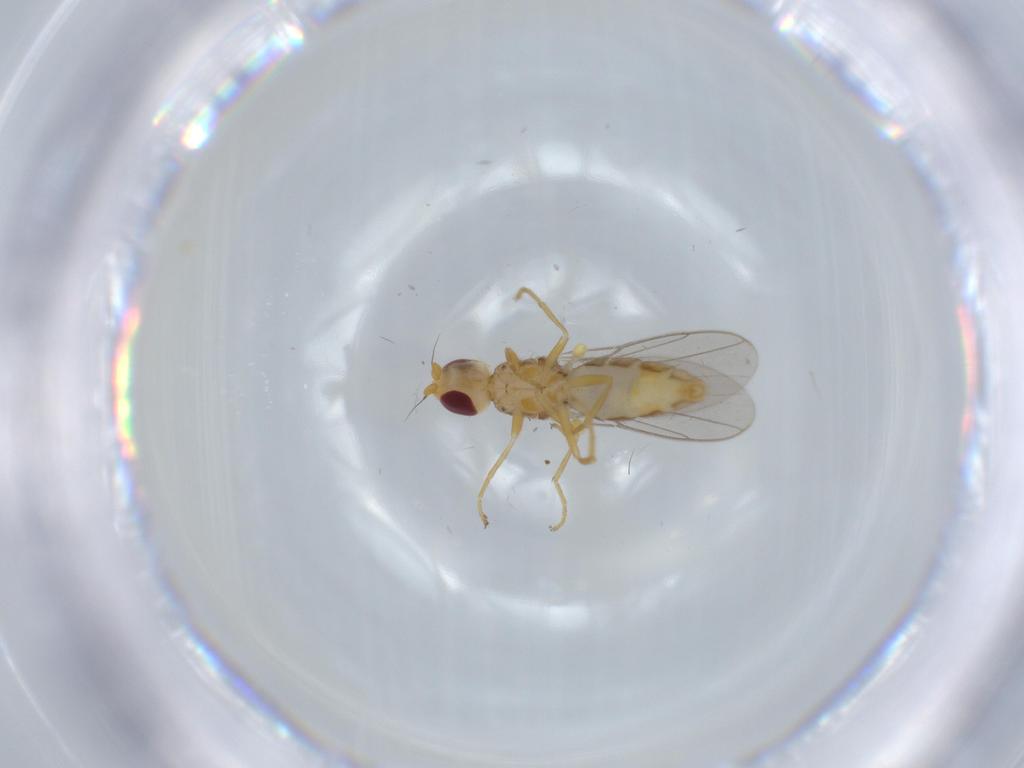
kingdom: Animalia
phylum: Arthropoda
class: Insecta
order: Diptera
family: Chloropidae
